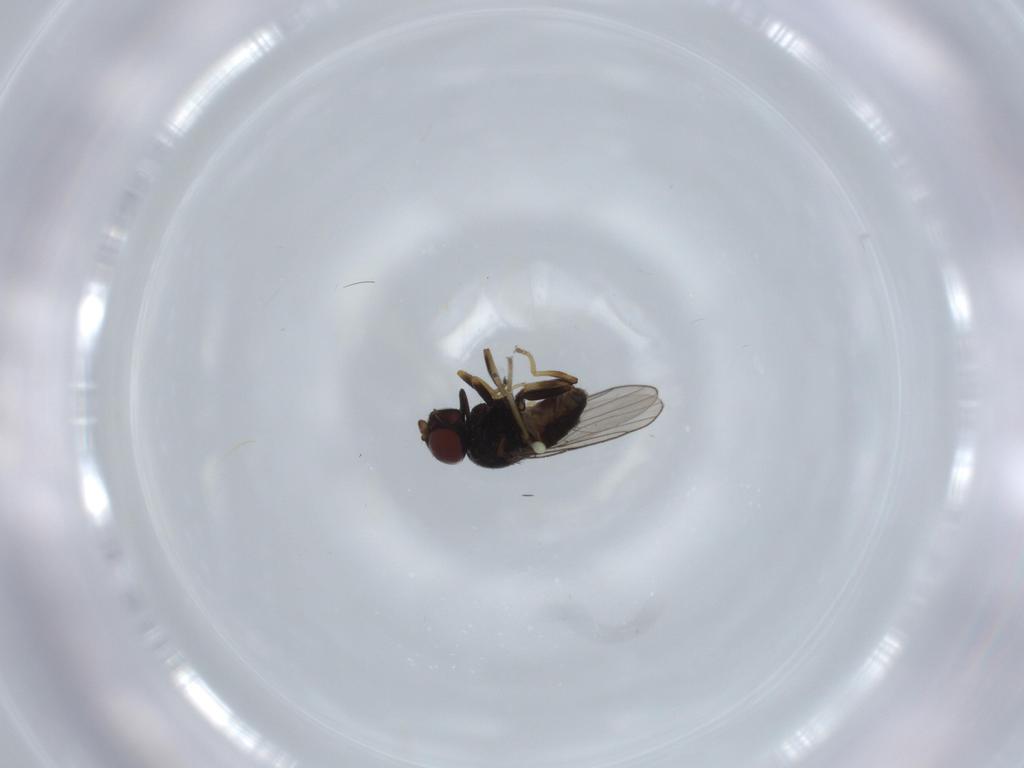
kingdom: Animalia
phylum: Arthropoda
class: Insecta
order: Diptera
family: Chloropidae
